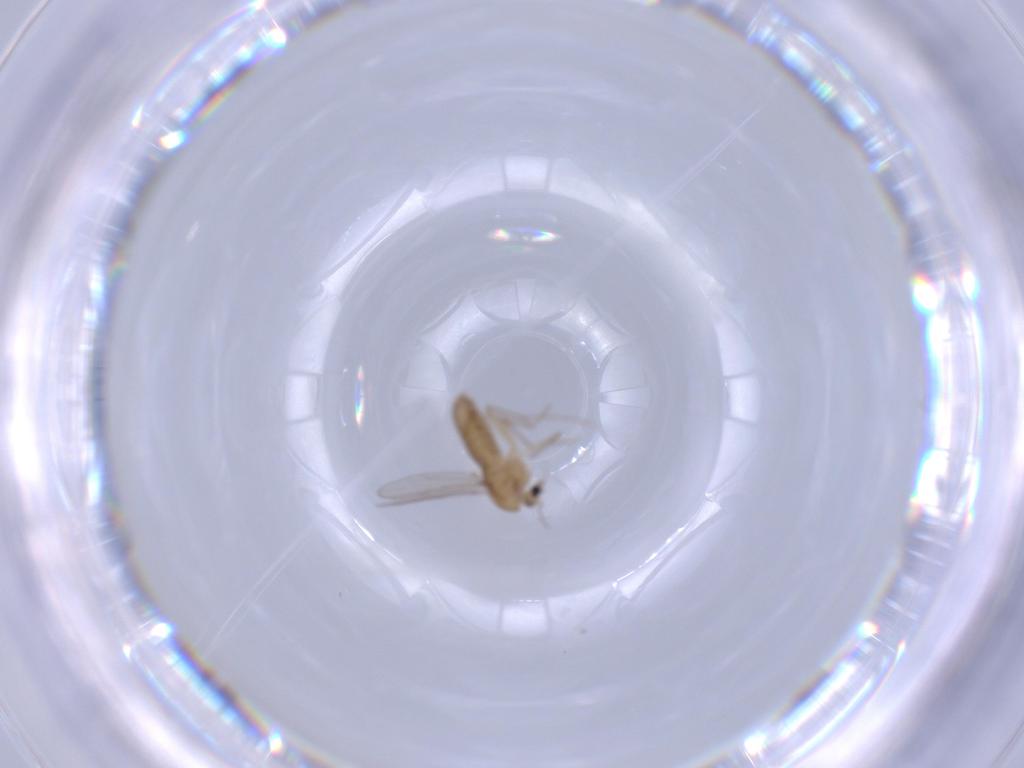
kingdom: Animalia
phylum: Arthropoda
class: Insecta
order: Diptera
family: Chironomidae
